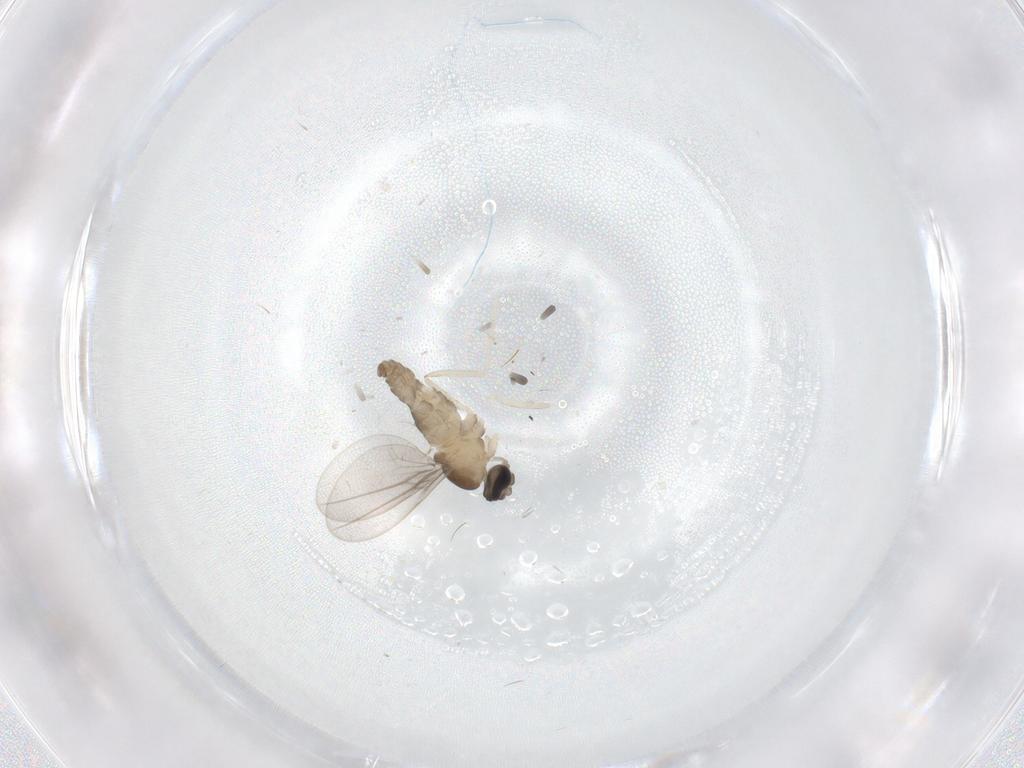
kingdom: Animalia
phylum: Arthropoda
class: Insecta
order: Diptera
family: Cecidomyiidae
